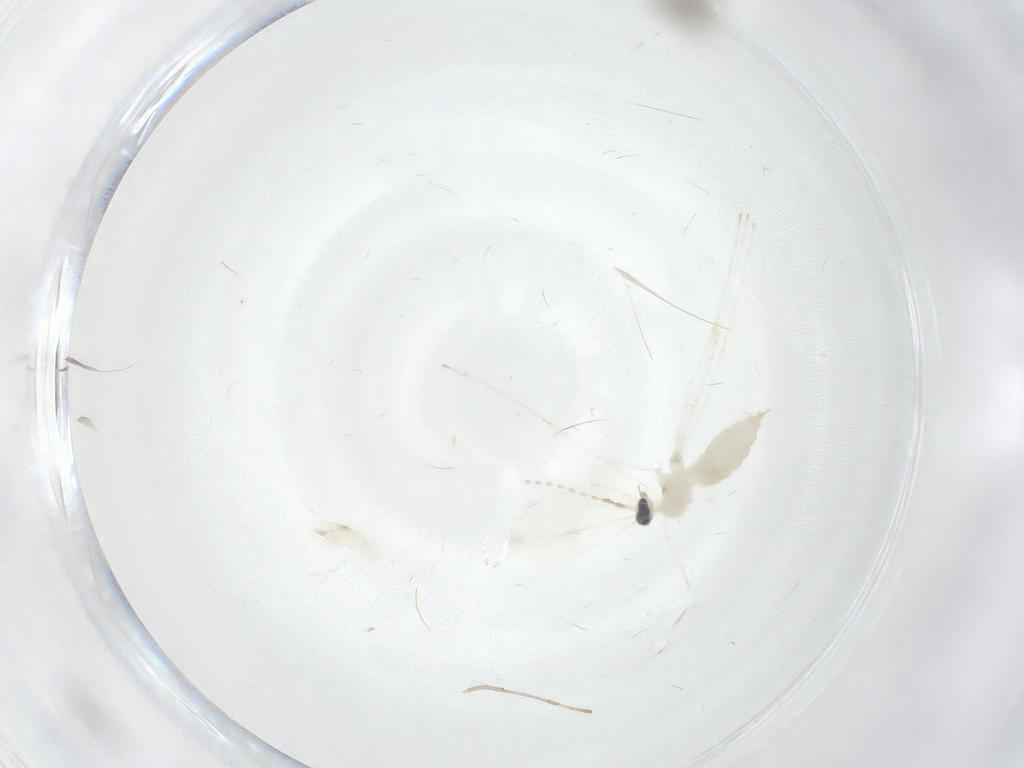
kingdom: Animalia
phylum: Arthropoda
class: Insecta
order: Diptera
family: Cecidomyiidae
